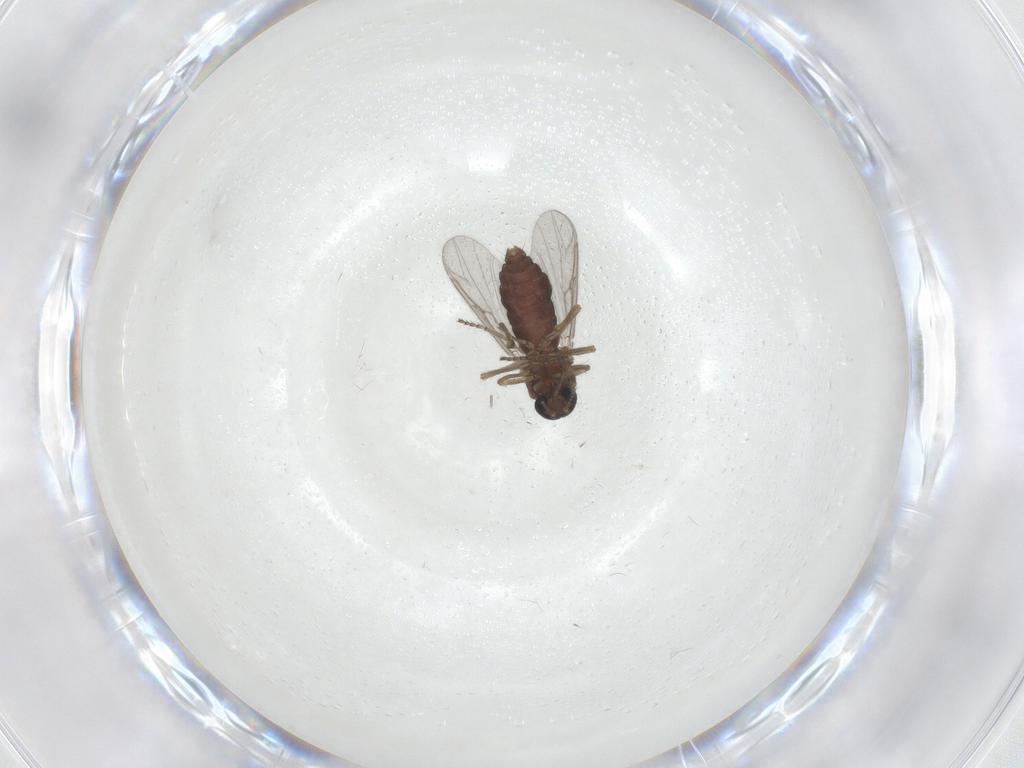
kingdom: Animalia
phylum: Arthropoda
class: Insecta
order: Diptera
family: Ceratopogonidae
